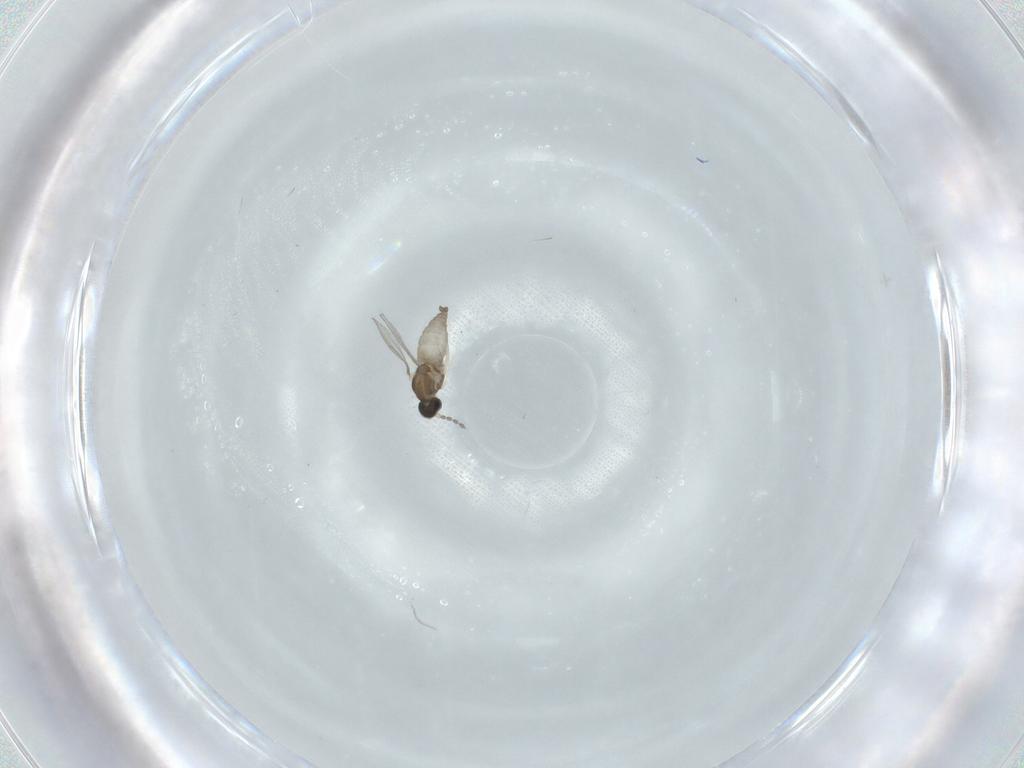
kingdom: Animalia
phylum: Arthropoda
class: Insecta
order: Diptera
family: Cecidomyiidae
